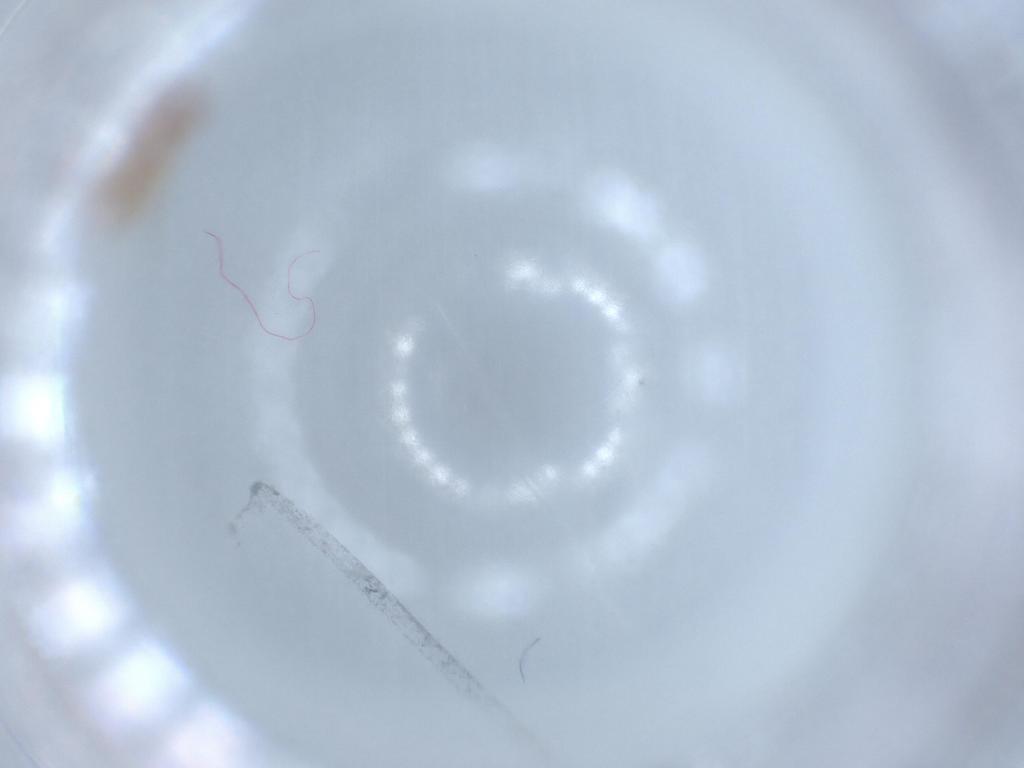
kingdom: Animalia
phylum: Arthropoda
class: Insecta
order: Hymenoptera
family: Scelionidae
